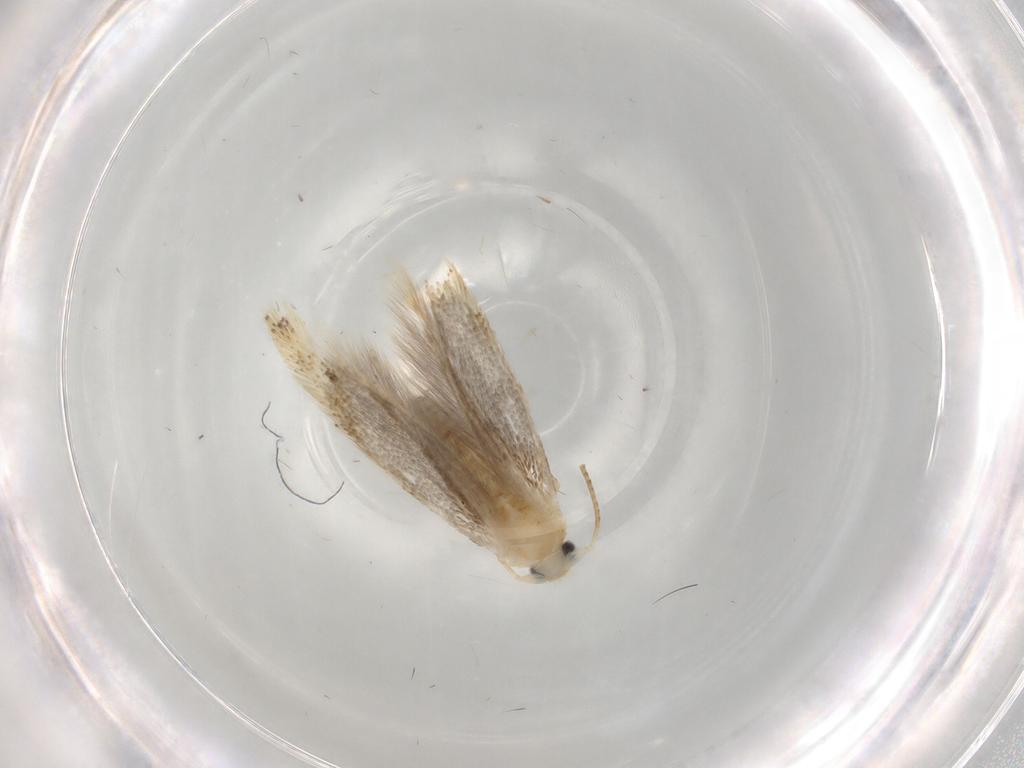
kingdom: Animalia
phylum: Arthropoda
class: Insecta
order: Lepidoptera
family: Bucculatricidae
